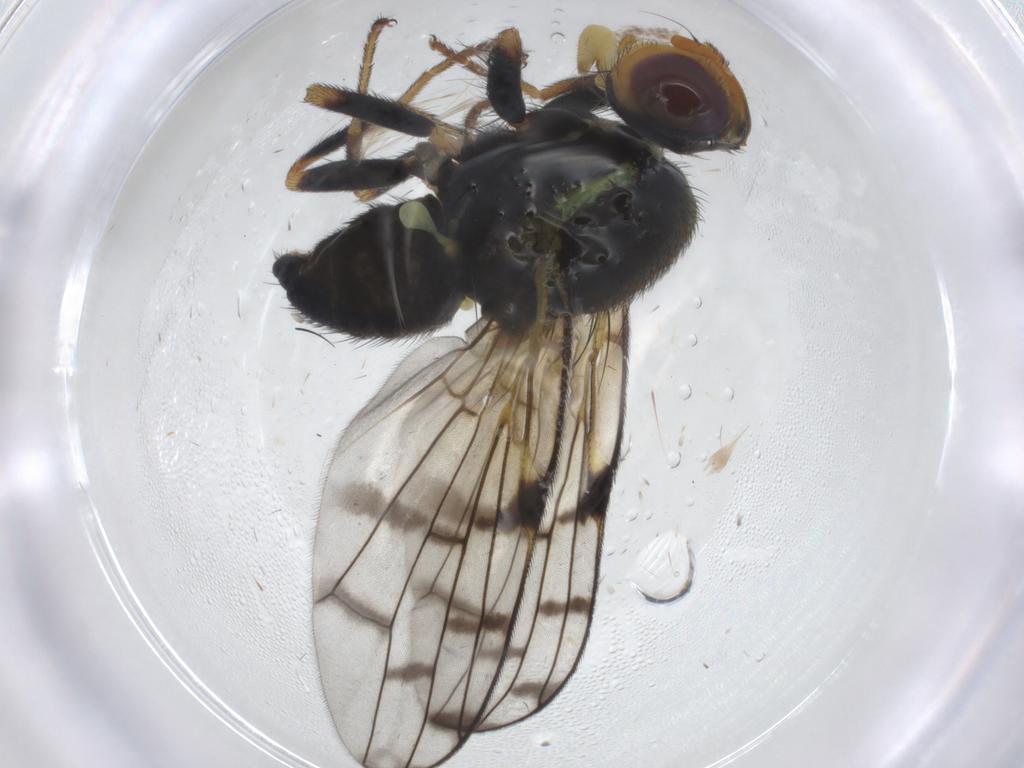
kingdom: Animalia
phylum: Arthropoda
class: Insecta
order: Diptera
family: Tephritidae
